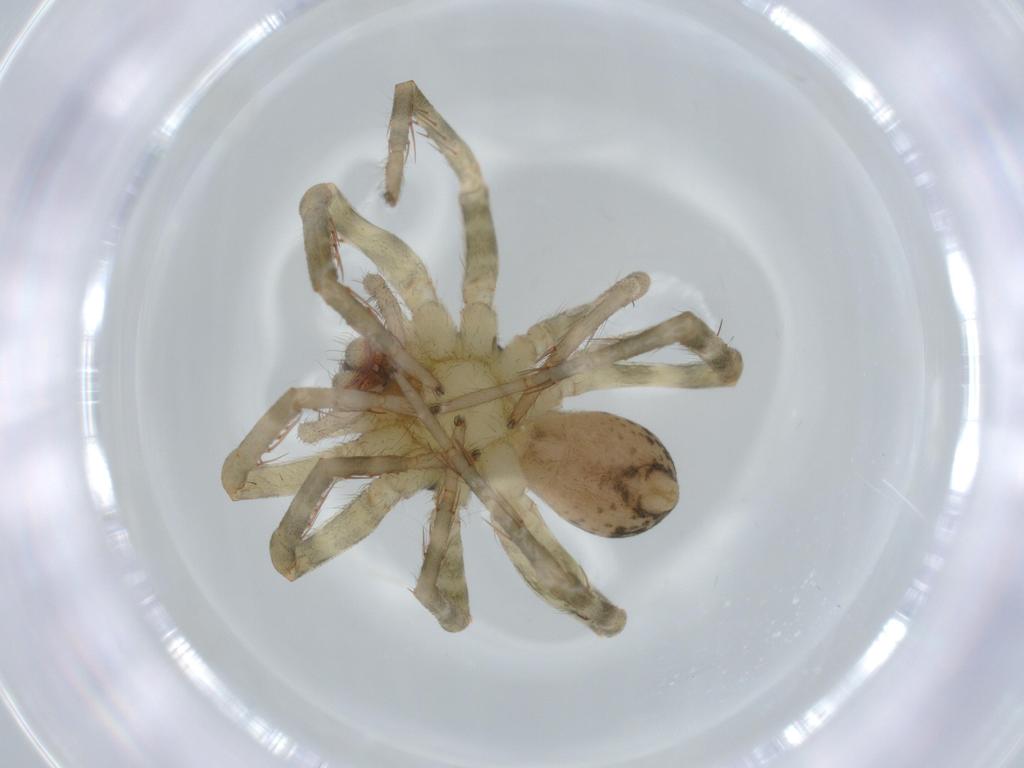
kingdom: Animalia
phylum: Arthropoda
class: Arachnida
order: Araneae
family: Ctenidae
